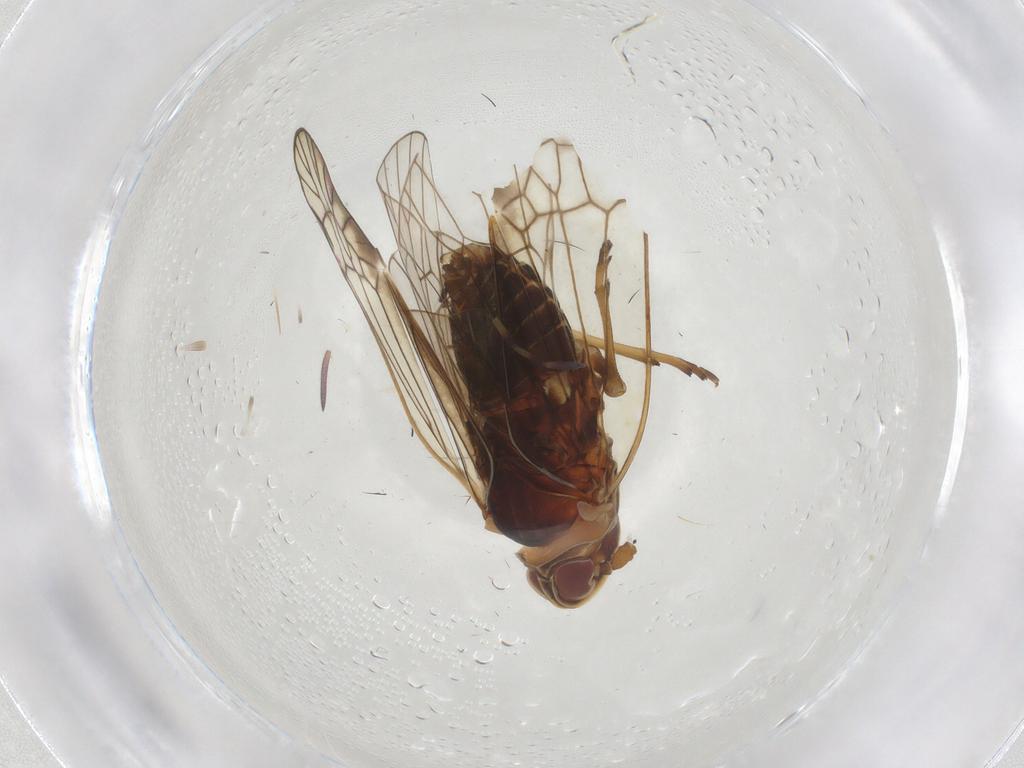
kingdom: Animalia
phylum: Arthropoda
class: Insecta
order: Hemiptera
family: Kinnaridae
